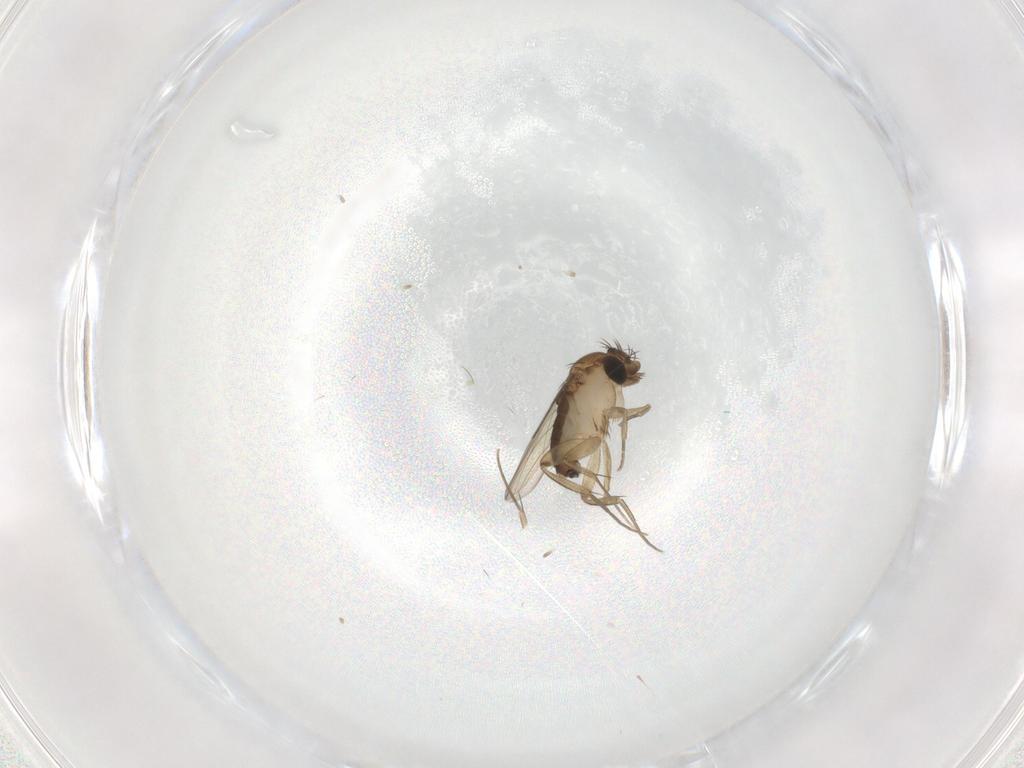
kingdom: Animalia
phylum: Arthropoda
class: Insecta
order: Diptera
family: Phoridae
